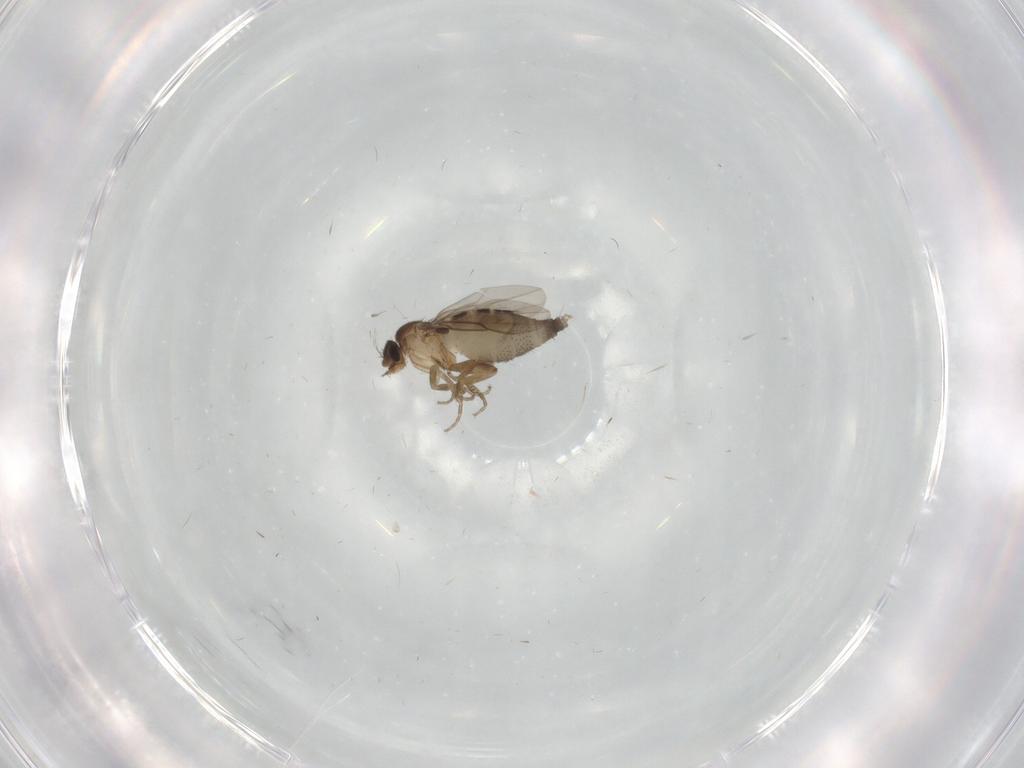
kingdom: Animalia
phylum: Arthropoda
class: Insecta
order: Diptera
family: Phoridae
